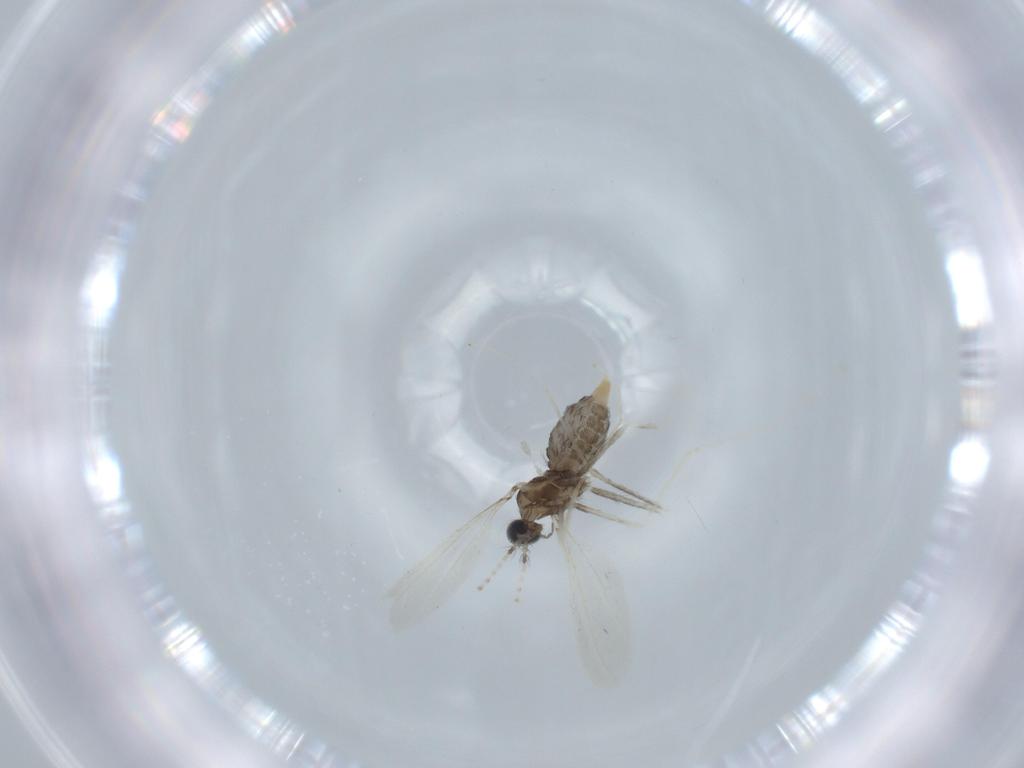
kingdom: Animalia
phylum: Arthropoda
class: Insecta
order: Diptera
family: Cecidomyiidae
